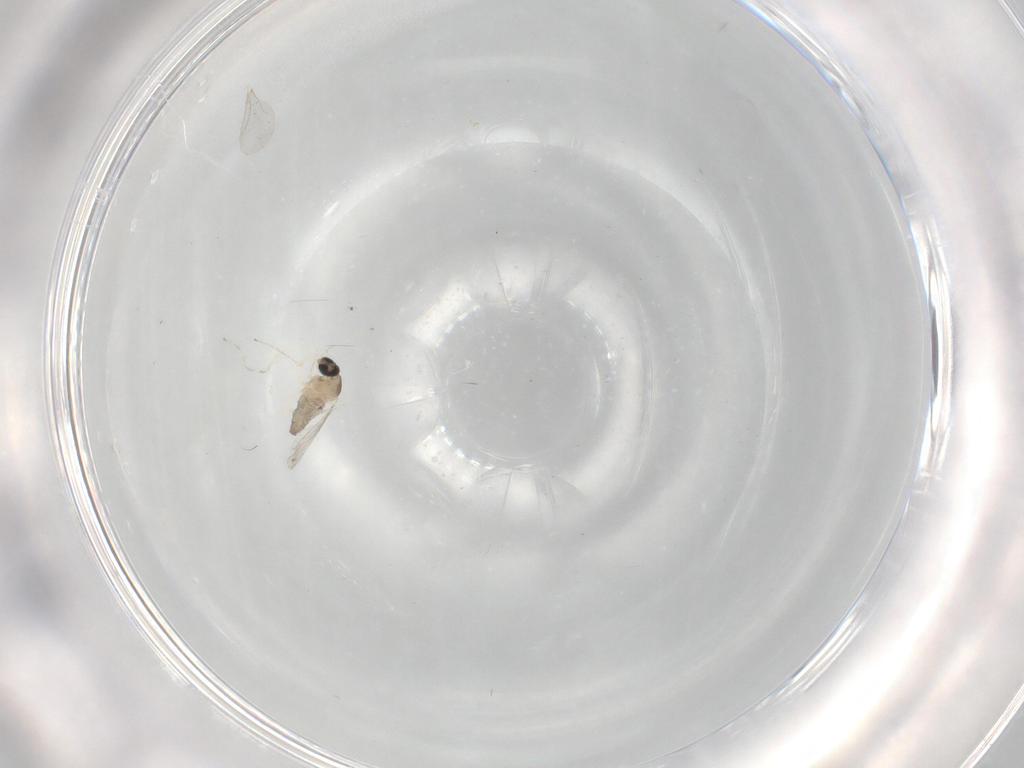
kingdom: Animalia
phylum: Arthropoda
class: Insecta
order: Diptera
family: Cecidomyiidae
